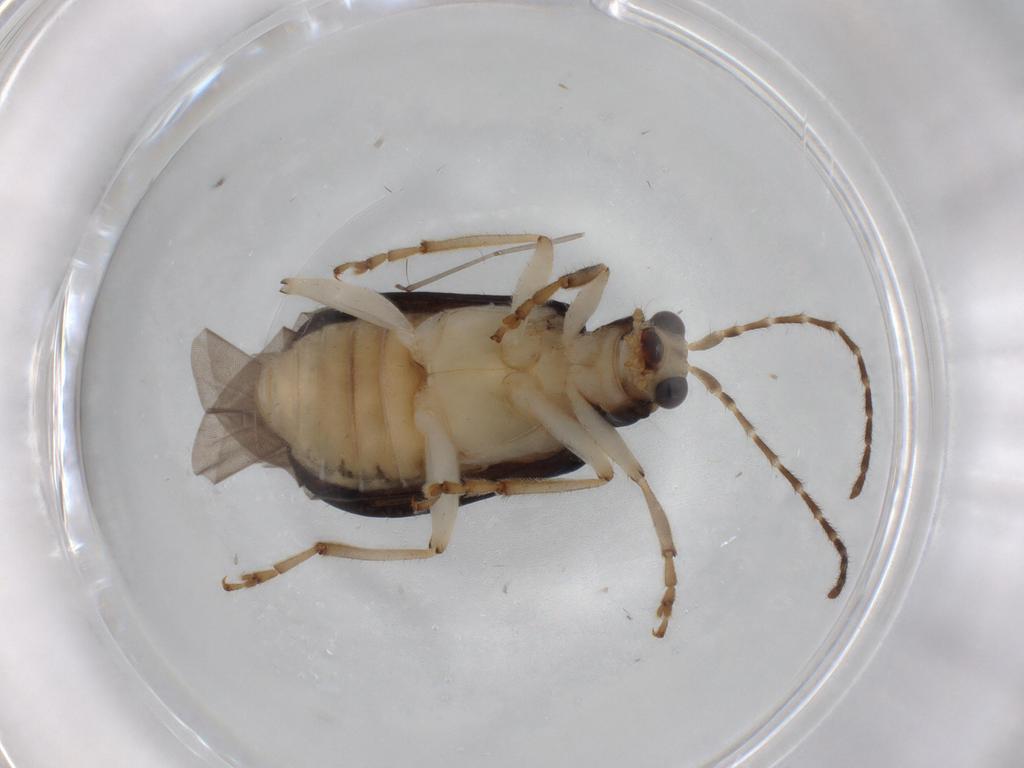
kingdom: Animalia
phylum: Arthropoda
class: Insecta
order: Coleoptera
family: Chrysomelidae
